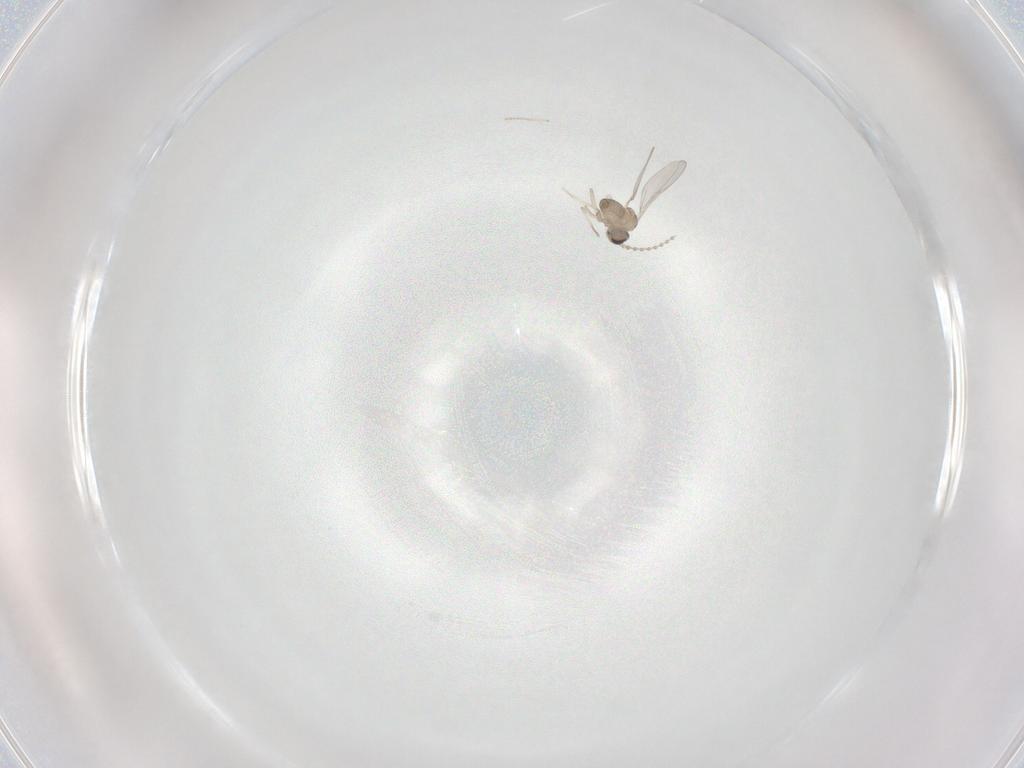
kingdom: Animalia
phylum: Arthropoda
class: Insecta
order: Diptera
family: Cecidomyiidae
